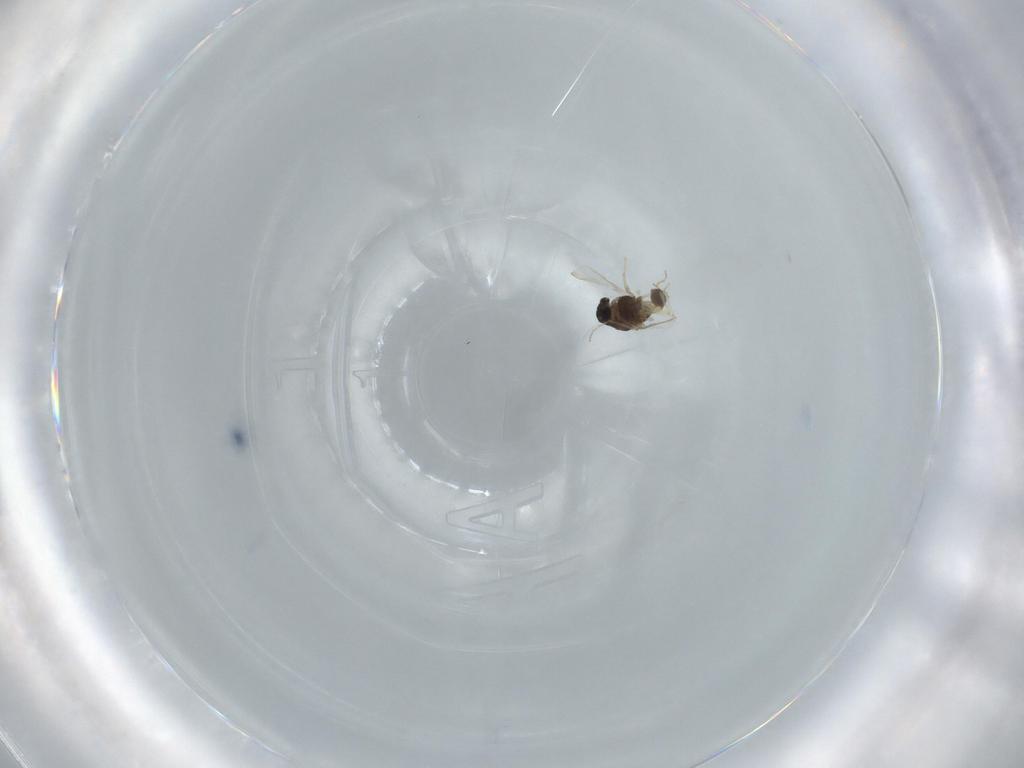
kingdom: Animalia
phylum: Arthropoda
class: Insecta
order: Diptera
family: Chironomidae
